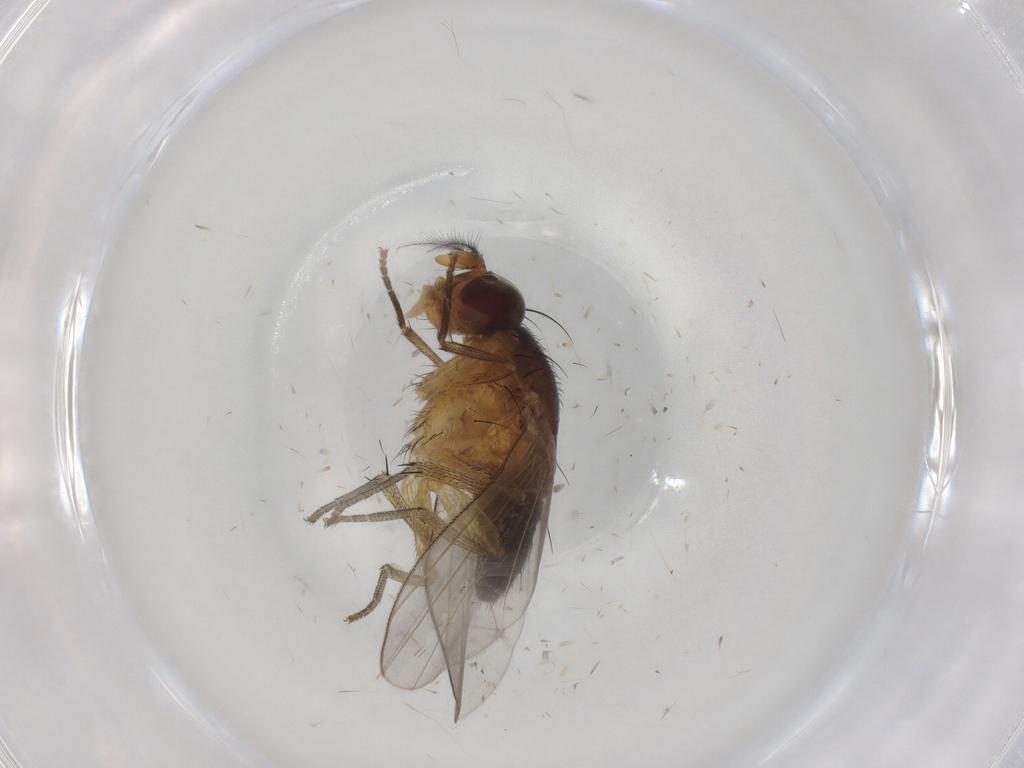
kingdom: Animalia
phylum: Arthropoda
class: Insecta
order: Diptera
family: Lauxaniidae
